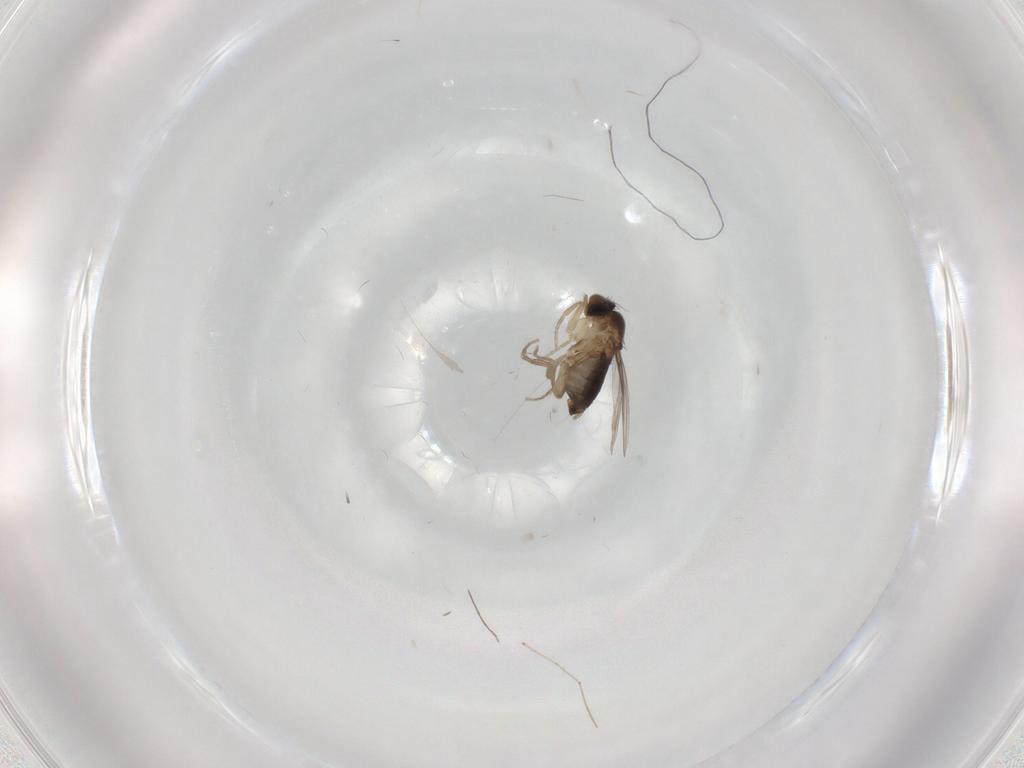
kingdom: Animalia
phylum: Arthropoda
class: Insecta
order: Diptera
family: Cecidomyiidae
